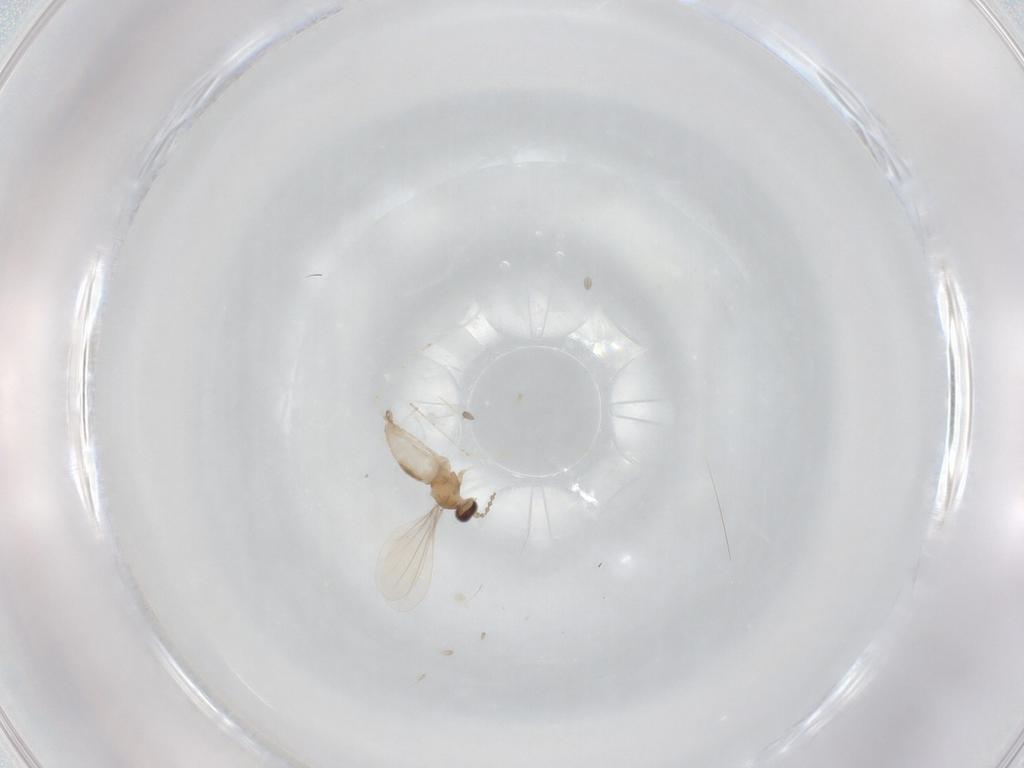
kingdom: Animalia
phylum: Arthropoda
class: Insecta
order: Diptera
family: Cecidomyiidae
